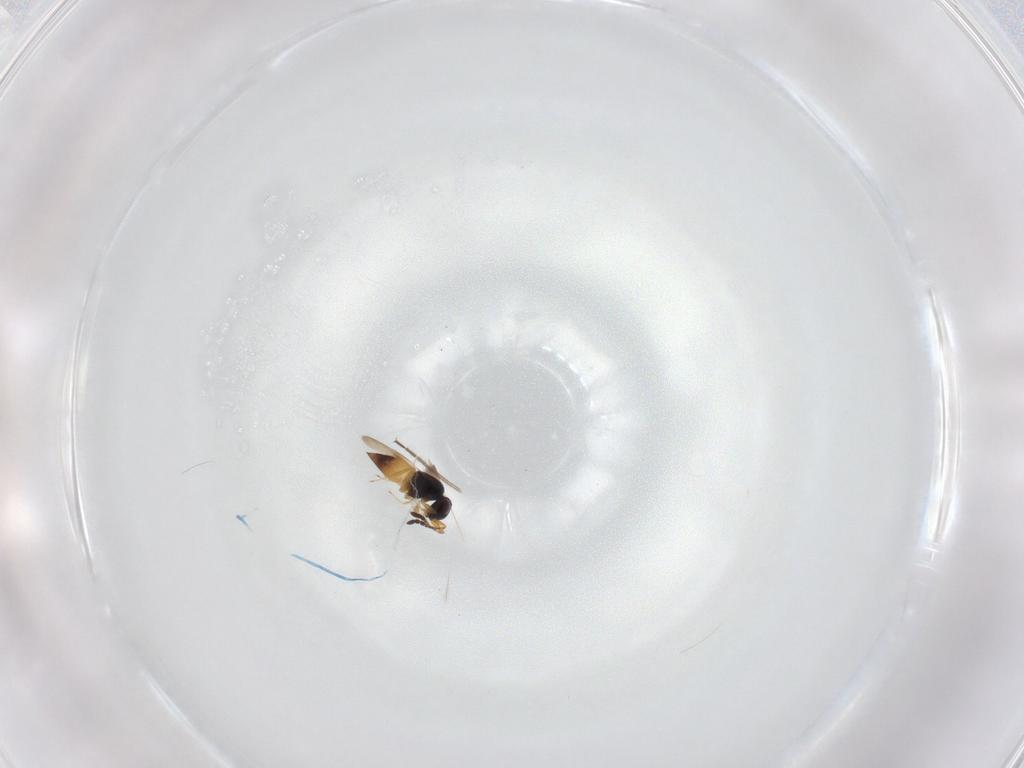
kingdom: Animalia
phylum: Arthropoda
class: Insecta
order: Hymenoptera
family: Ceraphronidae
